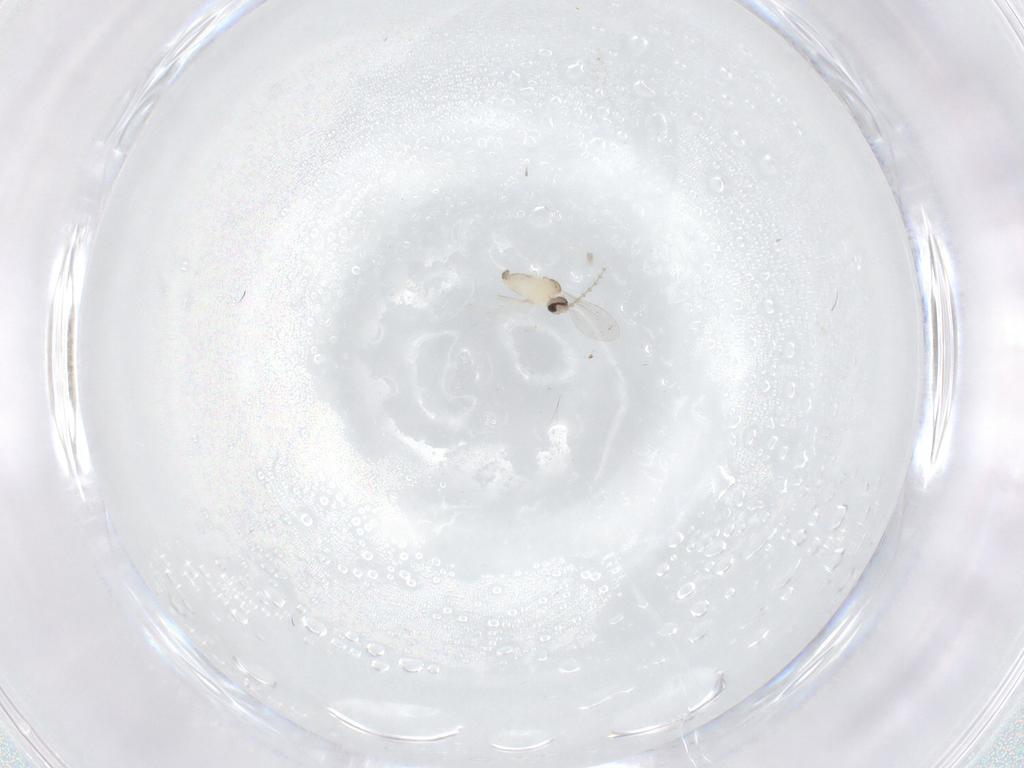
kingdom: Animalia
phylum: Arthropoda
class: Insecta
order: Diptera
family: Cecidomyiidae
